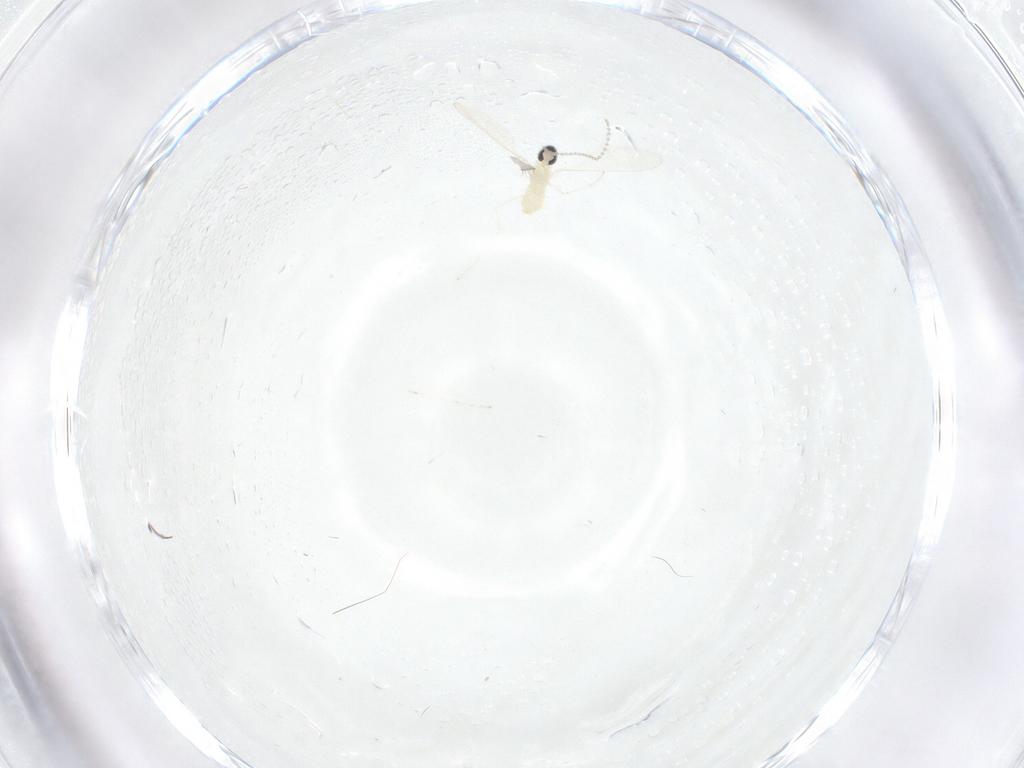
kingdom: Animalia
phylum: Arthropoda
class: Insecta
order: Diptera
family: Cecidomyiidae
